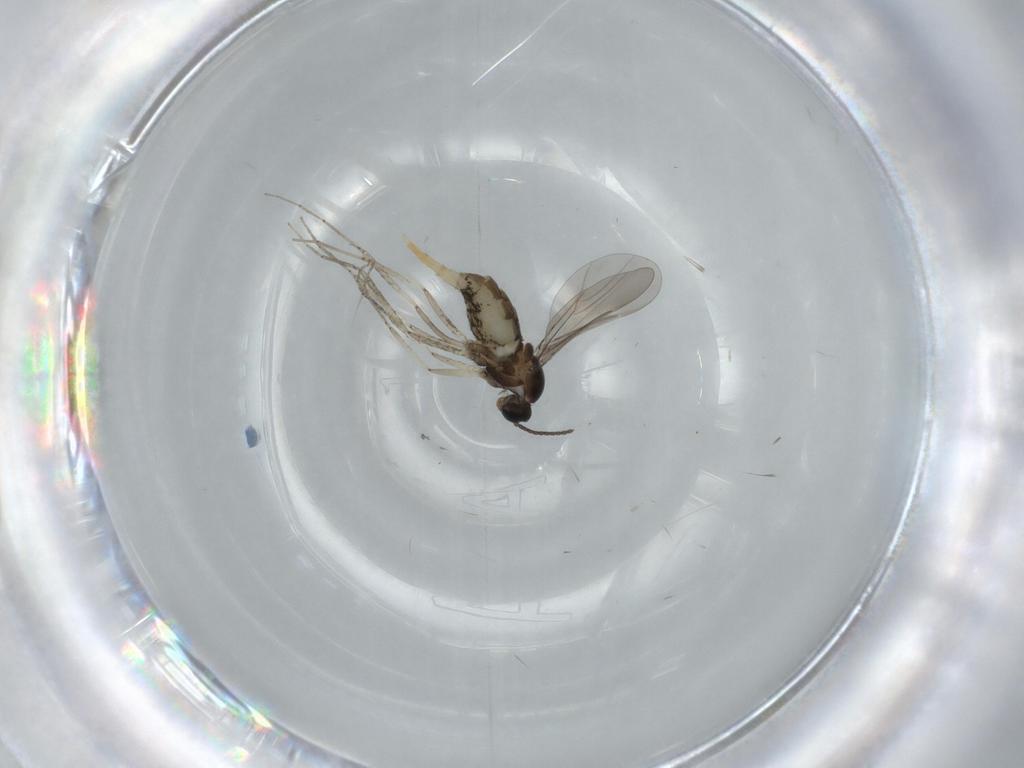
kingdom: Animalia
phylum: Arthropoda
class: Insecta
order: Diptera
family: Cecidomyiidae
